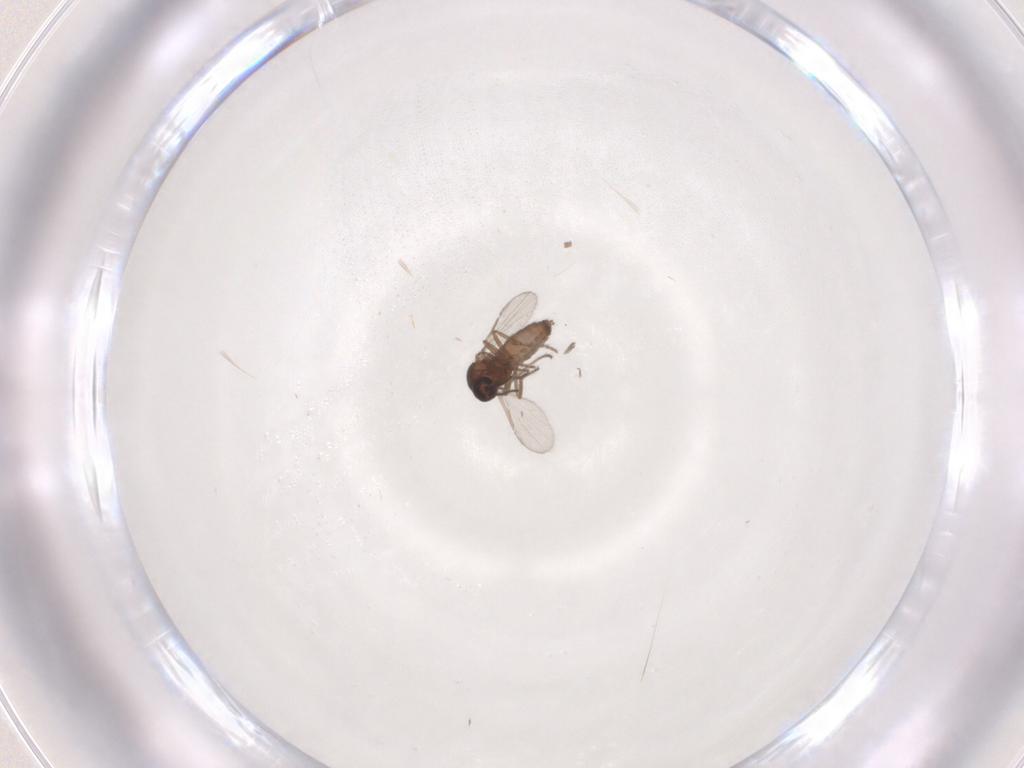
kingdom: Animalia
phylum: Arthropoda
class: Insecta
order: Diptera
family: Ceratopogonidae
